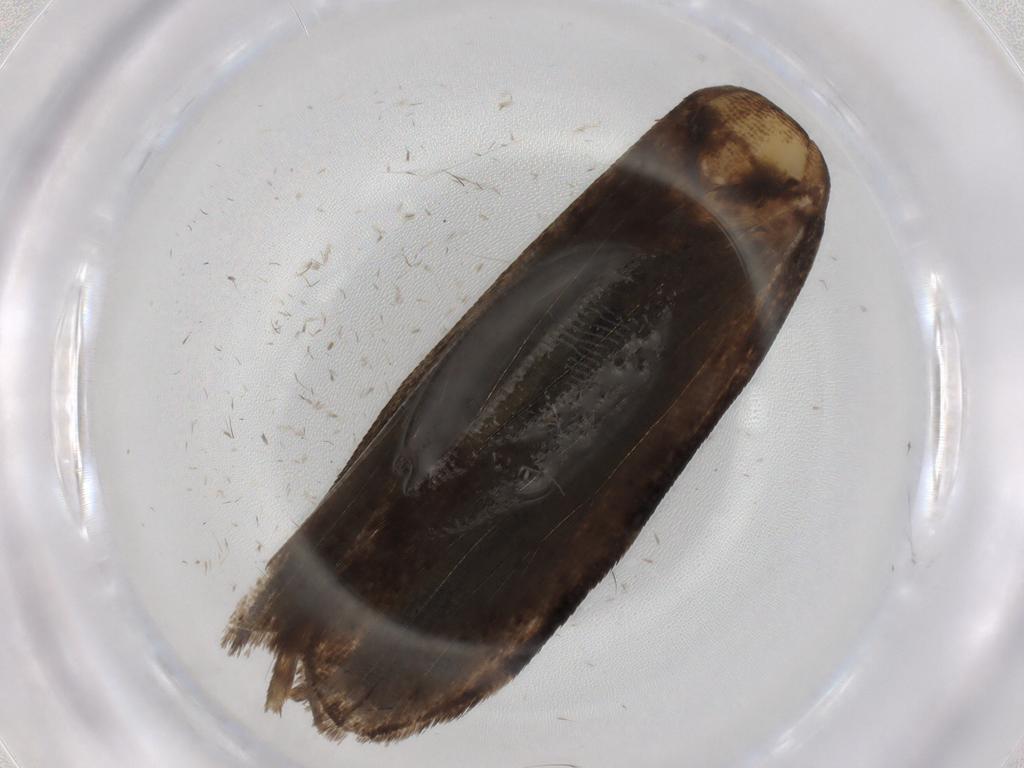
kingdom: Animalia
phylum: Arthropoda
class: Insecta
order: Lepidoptera
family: Nepticulidae
